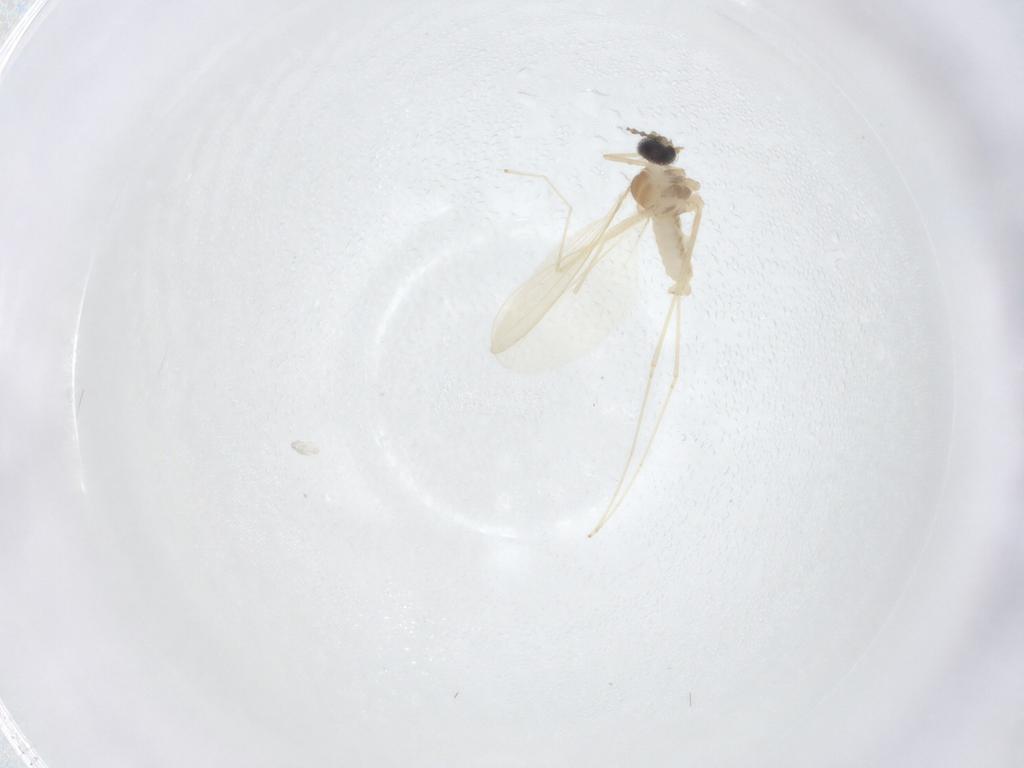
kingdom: Animalia
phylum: Arthropoda
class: Insecta
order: Diptera
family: Cecidomyiidae
